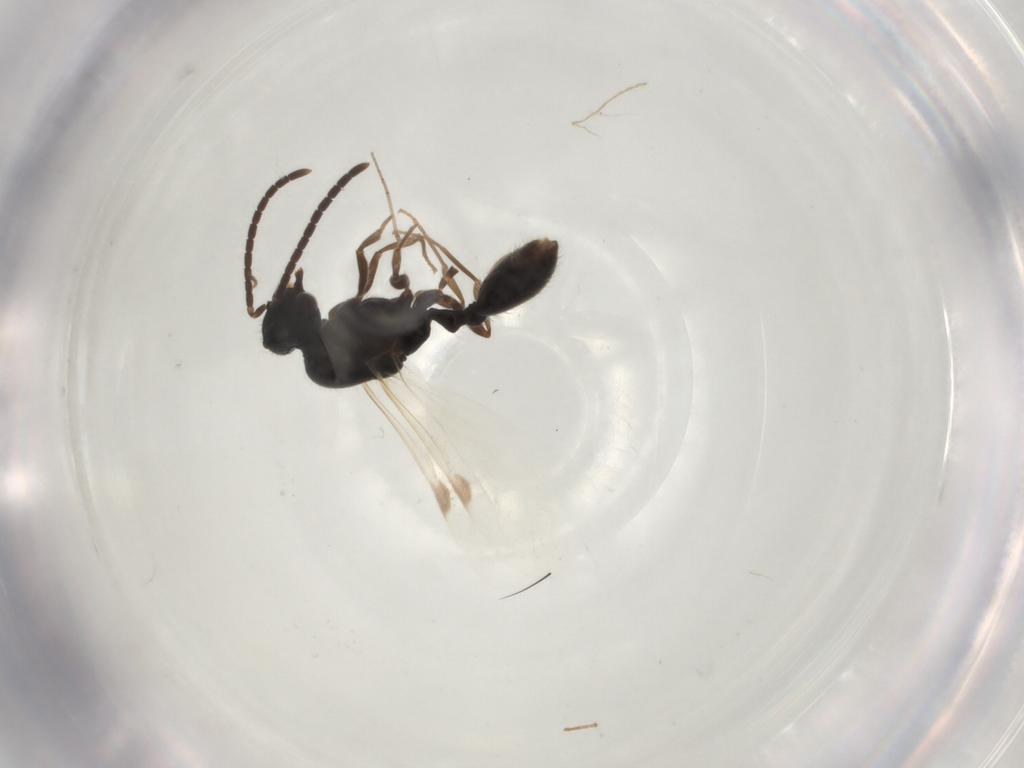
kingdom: Animalia
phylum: Arthropoda
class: Insecta
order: Hymenoptera
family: Formicidae
